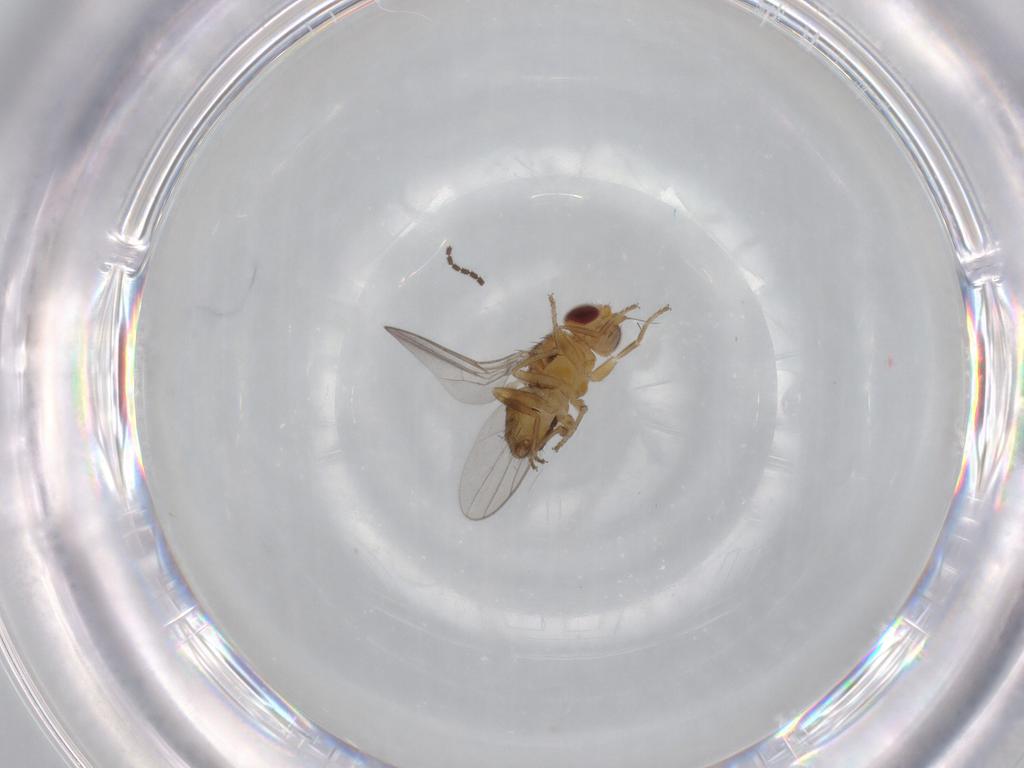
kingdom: Animalia
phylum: Arthropoda
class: Insecta
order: Diptera
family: Chloropidae
